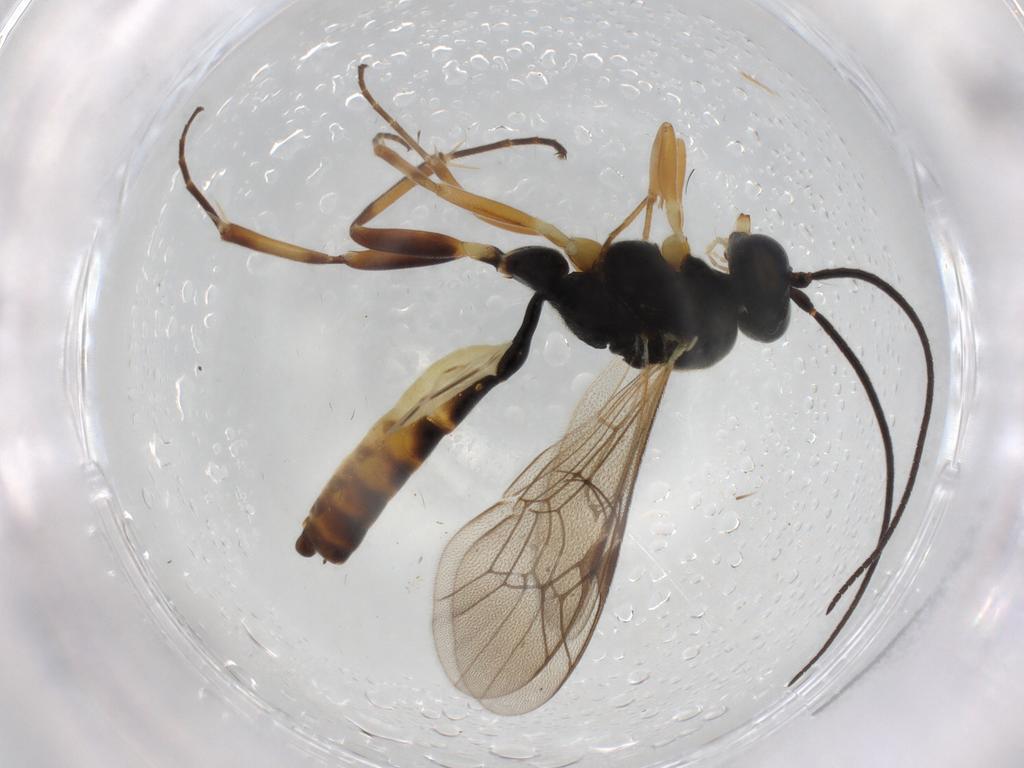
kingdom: Animalia
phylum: Arthropoda
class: Insecta
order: Hymenoptera
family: Ichneumonidae
